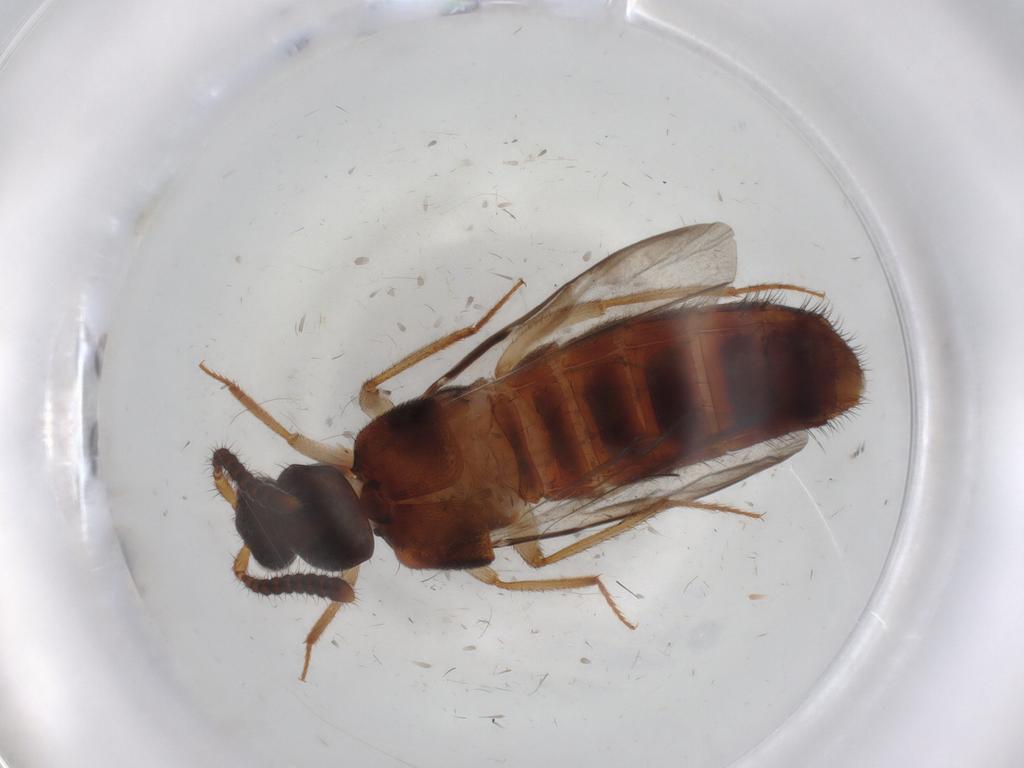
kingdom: Animalia
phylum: Arthropoda
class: Insecta
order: Coleoptera
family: Staphylinidae
